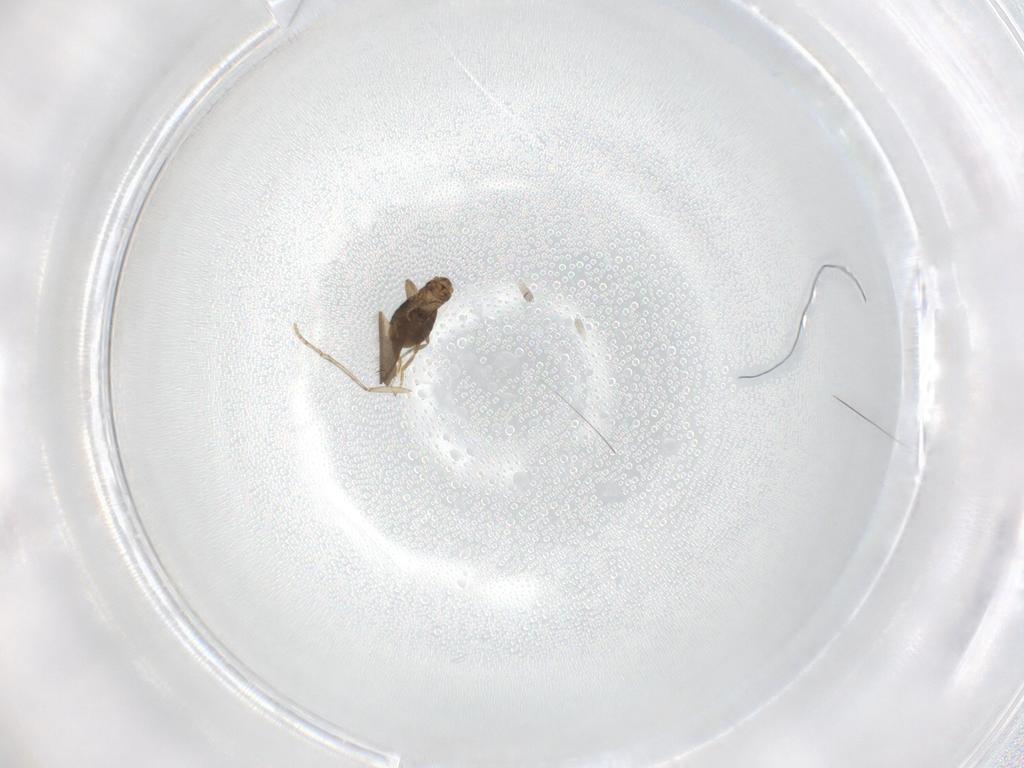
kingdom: Animalia
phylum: Arthropoda
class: Insecta
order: Diptera
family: Limoniidae
